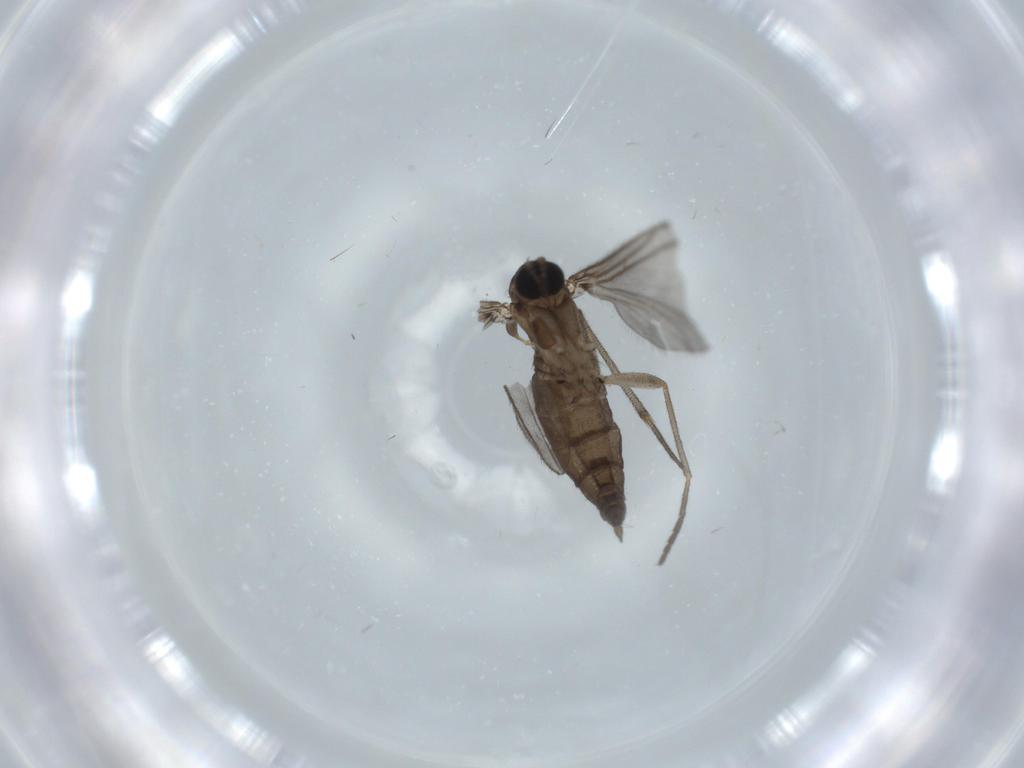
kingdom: Animalia
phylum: Arthropoda
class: Insecta
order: Diptera
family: Sciaridae
